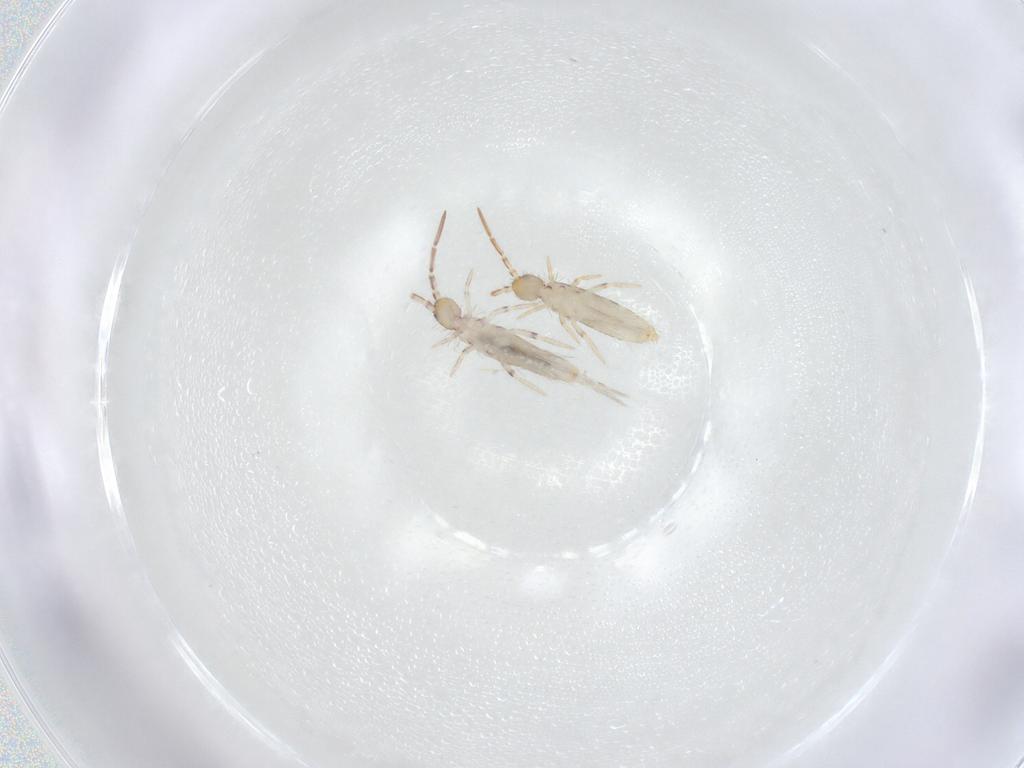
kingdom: Animalia
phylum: Arthropoda
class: Collembola
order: Entomobryomorpha
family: Entomobryidae
